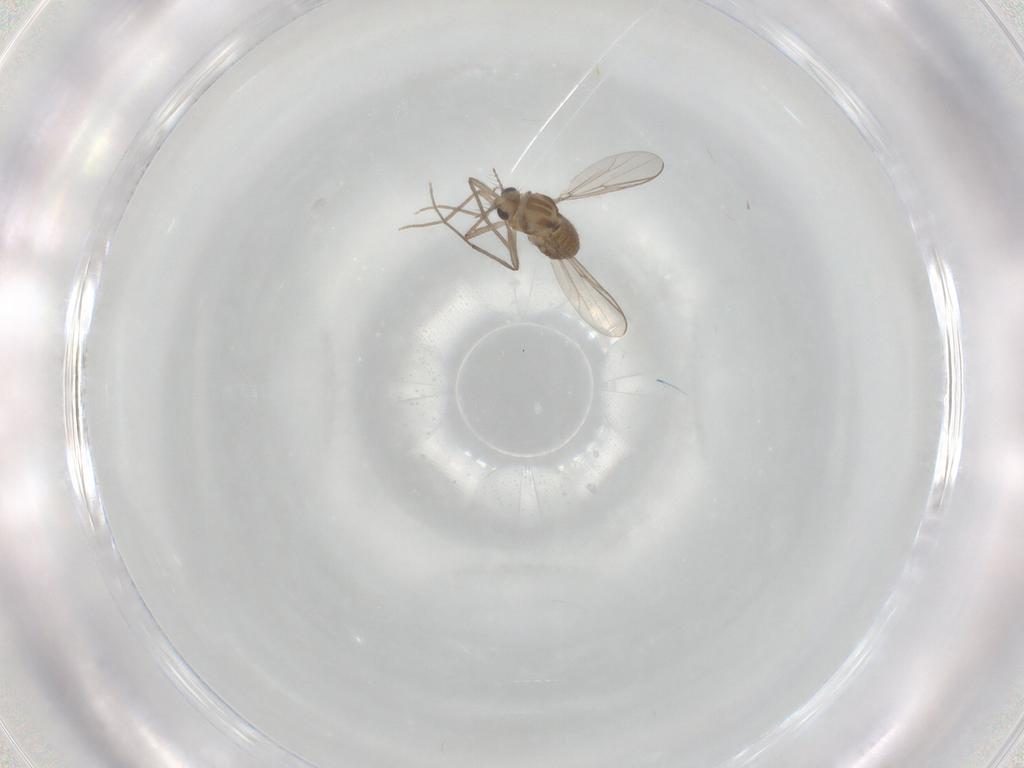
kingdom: Animalia
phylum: Arthropoda
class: Insecta
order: Diptera
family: Chironomidae
